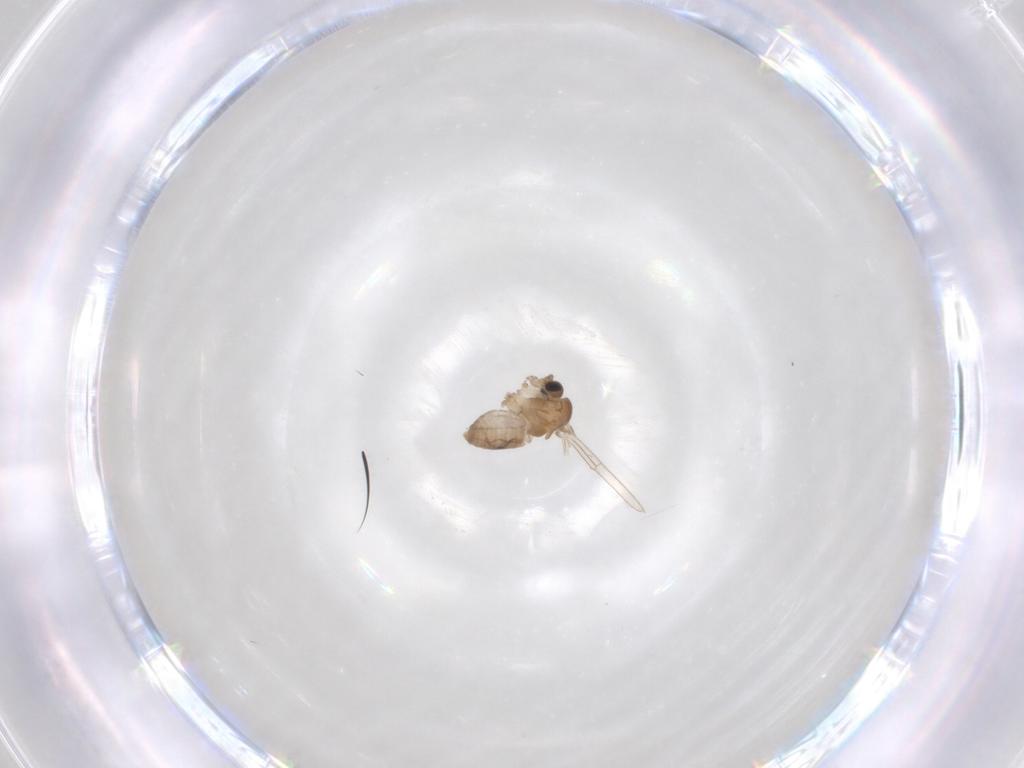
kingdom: Animalia
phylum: Arthropoda
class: Insecta
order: Diptera
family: Psychodidae
